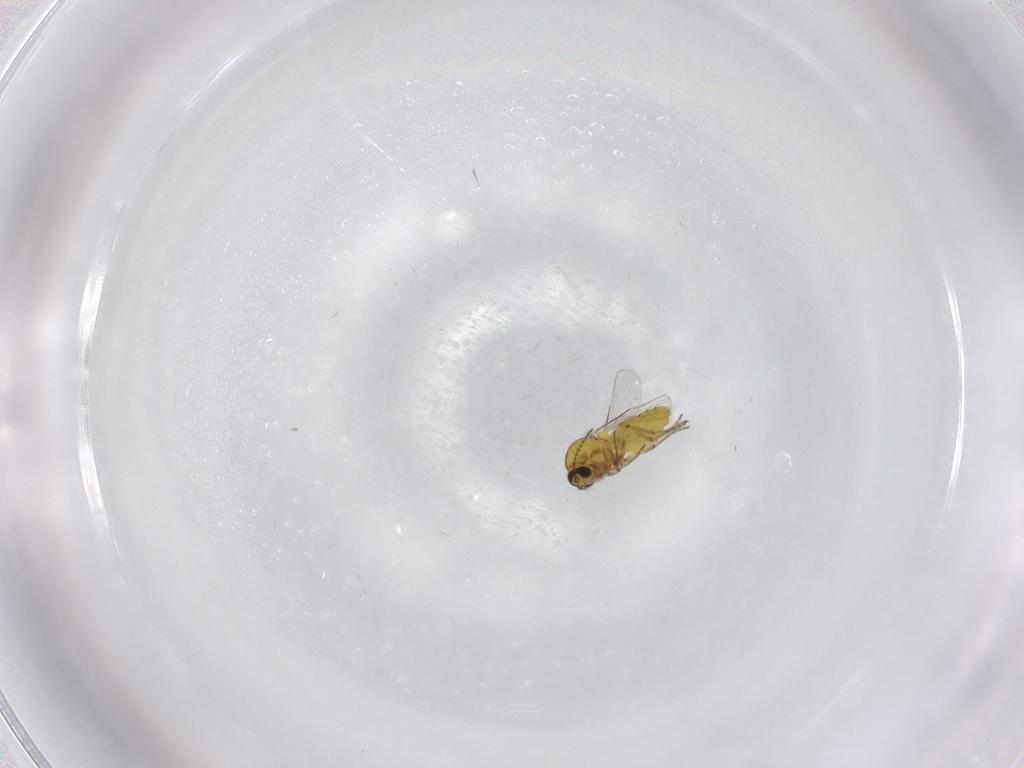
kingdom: Animalia
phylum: Arthropoda
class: Insecta
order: Diptera
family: Ceratopogonidae
